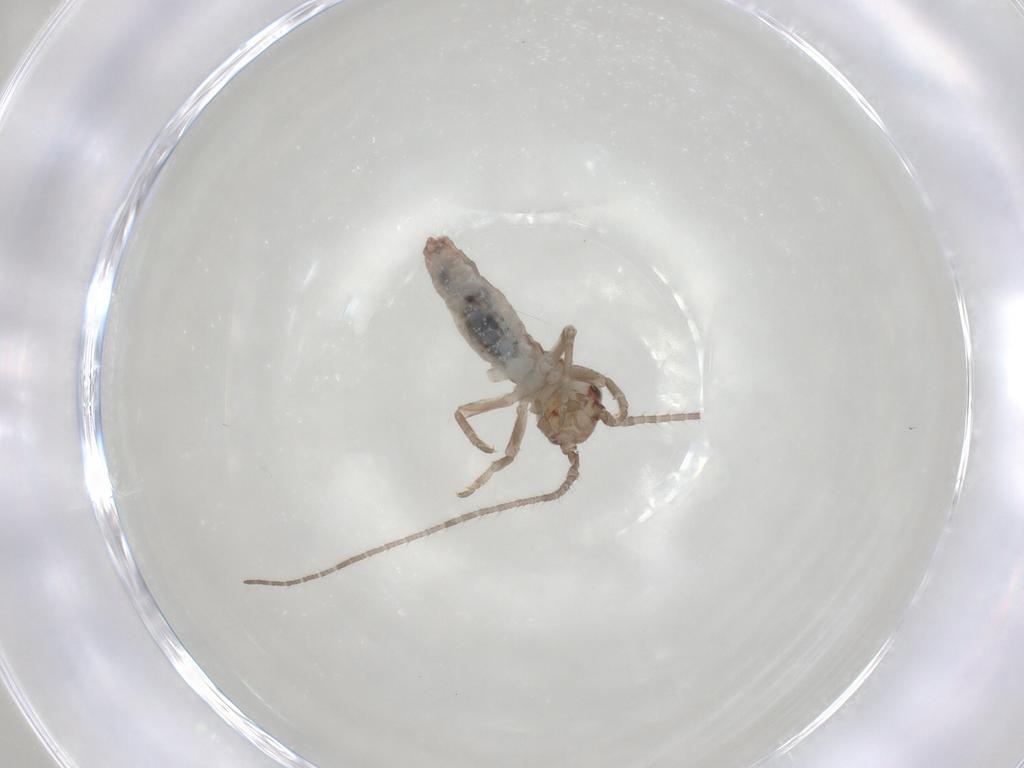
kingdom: Animalia
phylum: Arthropoda
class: Insecta
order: Orthoptera
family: Mogoplistidae
